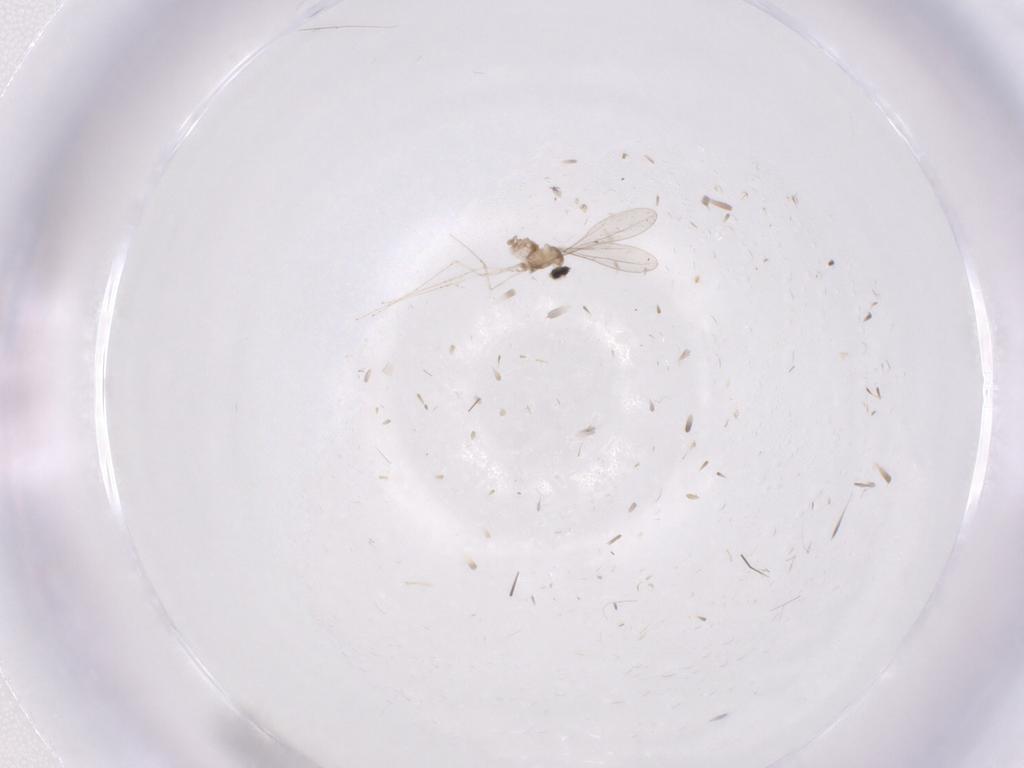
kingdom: Animalia
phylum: Arthropoda
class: Insecta
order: Diptera
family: Cecidomyiidae
